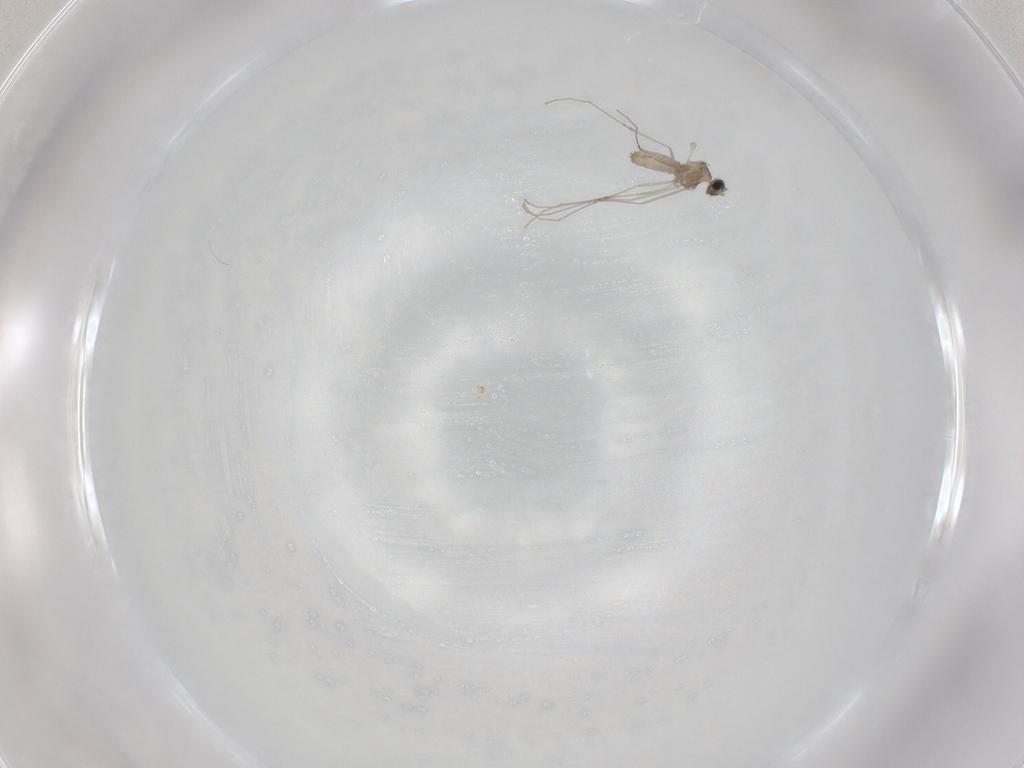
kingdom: Animalia
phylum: Arthropoda
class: Insecta
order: Diptera
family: Cecidomyiidae
